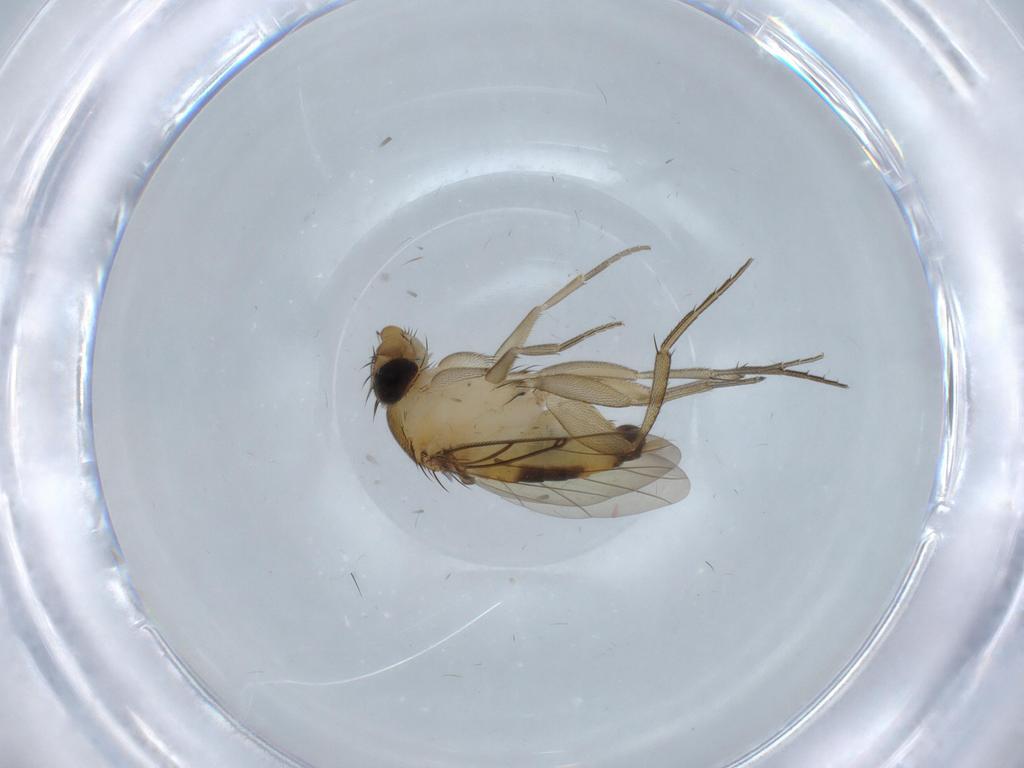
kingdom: Animalia
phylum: Arthropoda
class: Insecta
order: Diptera
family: Phoridae
